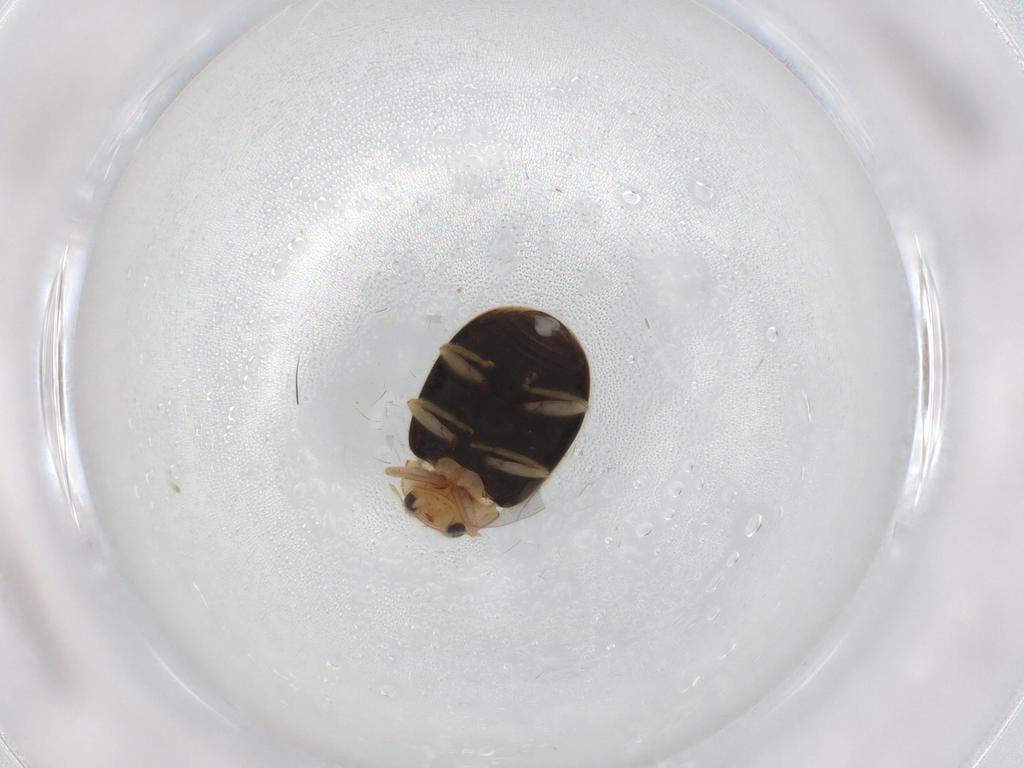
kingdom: Animalia
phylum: Arthropoda
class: Insecta
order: Coleoptera
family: Coccinellidae
